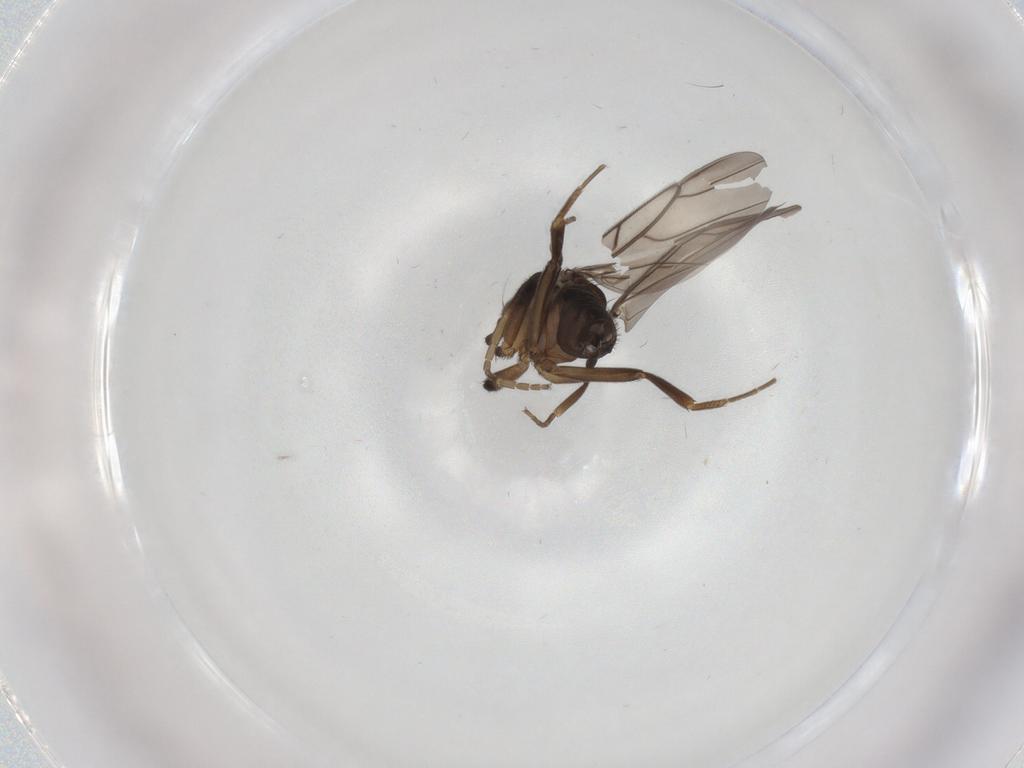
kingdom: Animalia
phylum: Arthropoda
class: Insecta
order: Diptera
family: Phoridae
